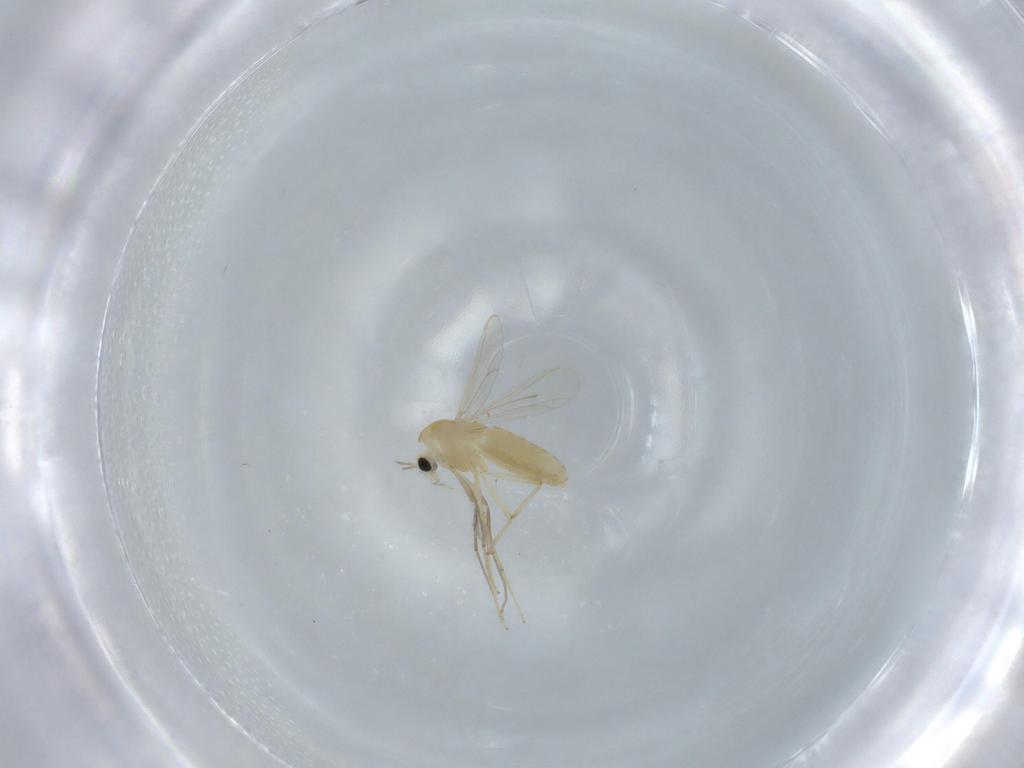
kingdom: Animalia
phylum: Arthropoda
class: Insecta
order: Diptera
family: Chironomidae
